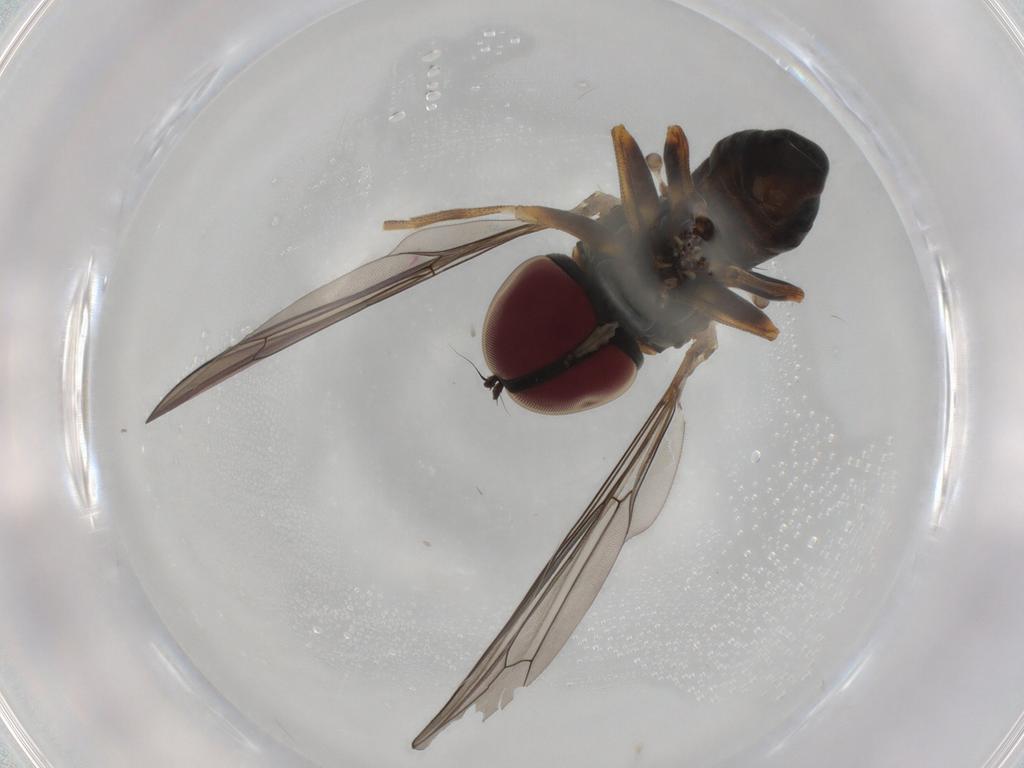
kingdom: Animalia
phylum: Arthropoda
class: Insecta
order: Diptera
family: Pipunculidae
